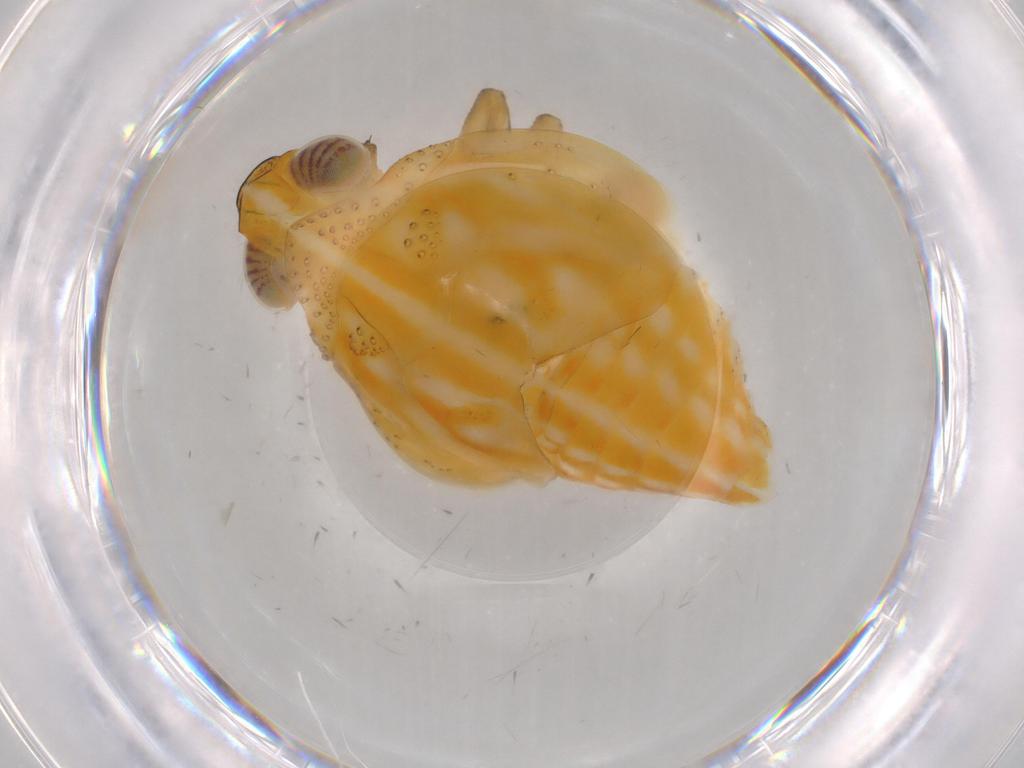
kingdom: Animalia
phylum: Arthropoda
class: Insecta
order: Hemiptera
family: Issidae
